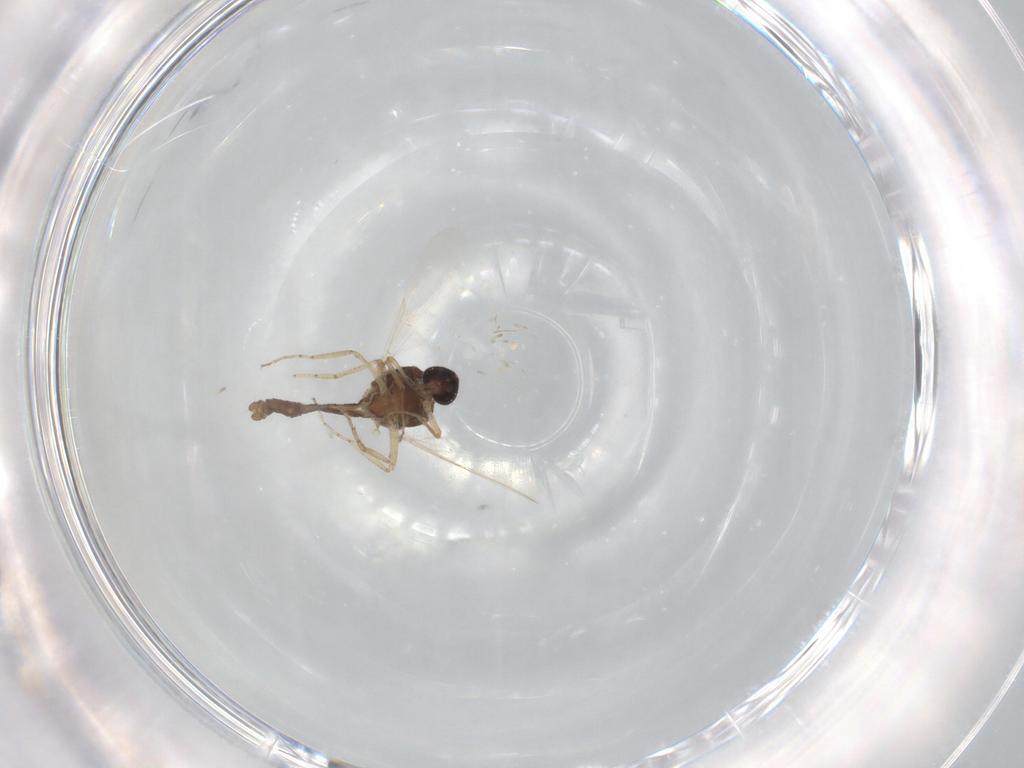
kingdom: Animalia
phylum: Arthropoda
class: Insecta
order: Diptera
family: Ceratopogonidae
